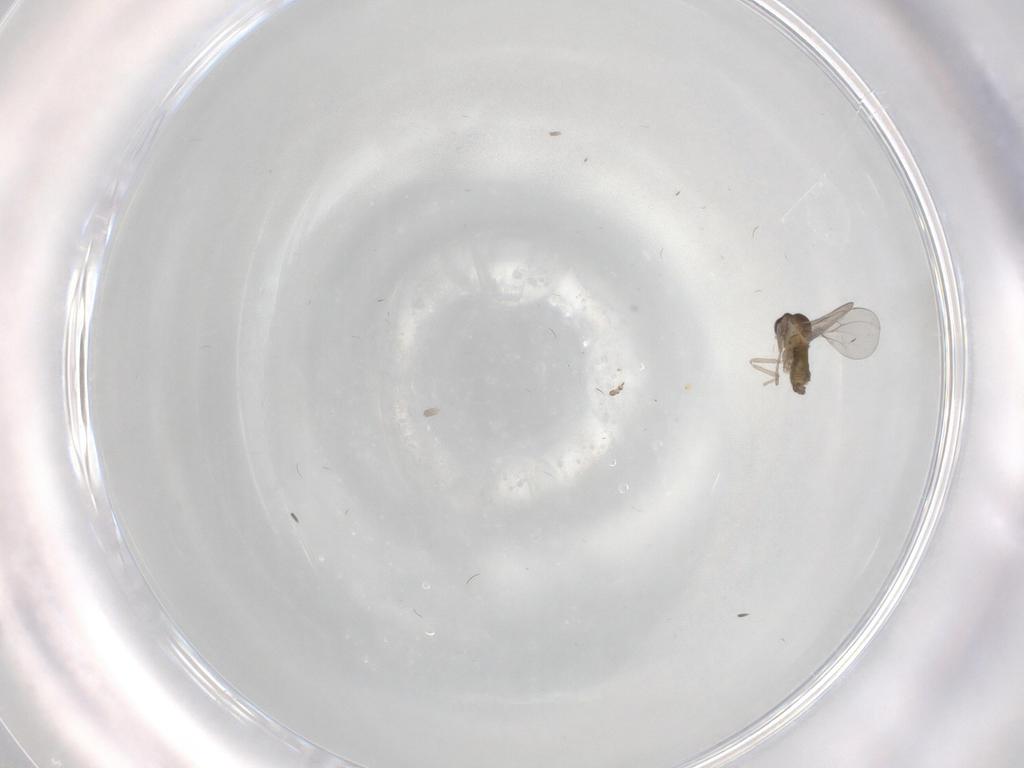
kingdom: Animalia
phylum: Arthropoda
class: Insecta
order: Diptera
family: Cecidomyiidae
